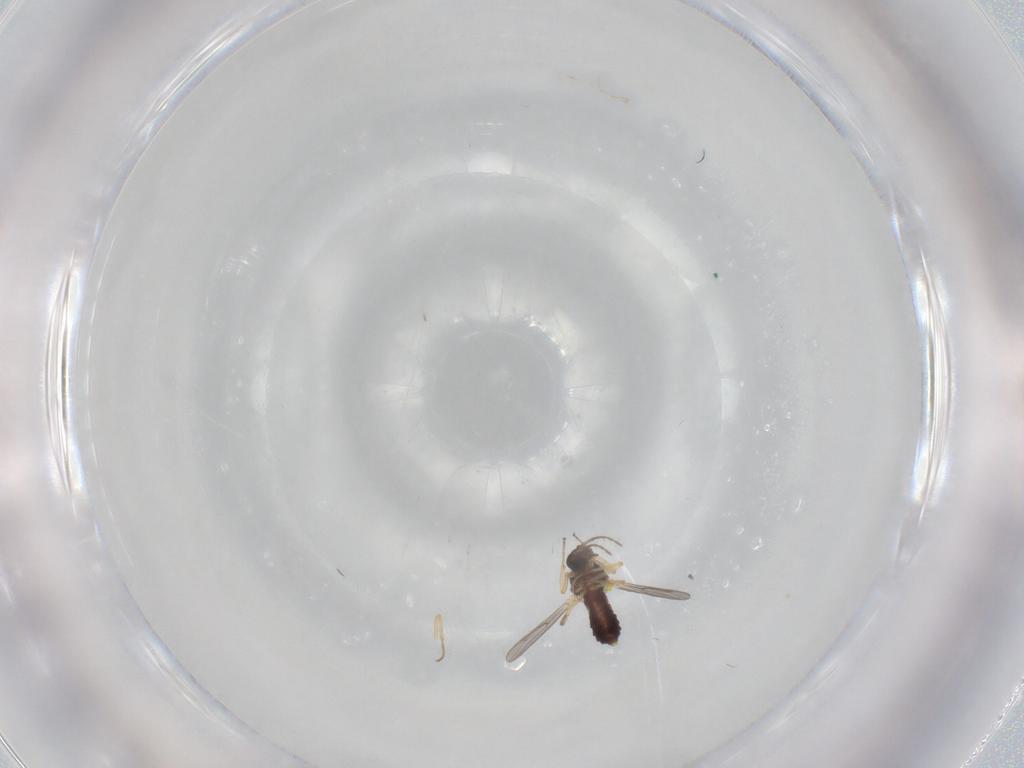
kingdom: Animalia
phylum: Arthropoda
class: Insecta
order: Diptera
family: Ceratopogonidae
